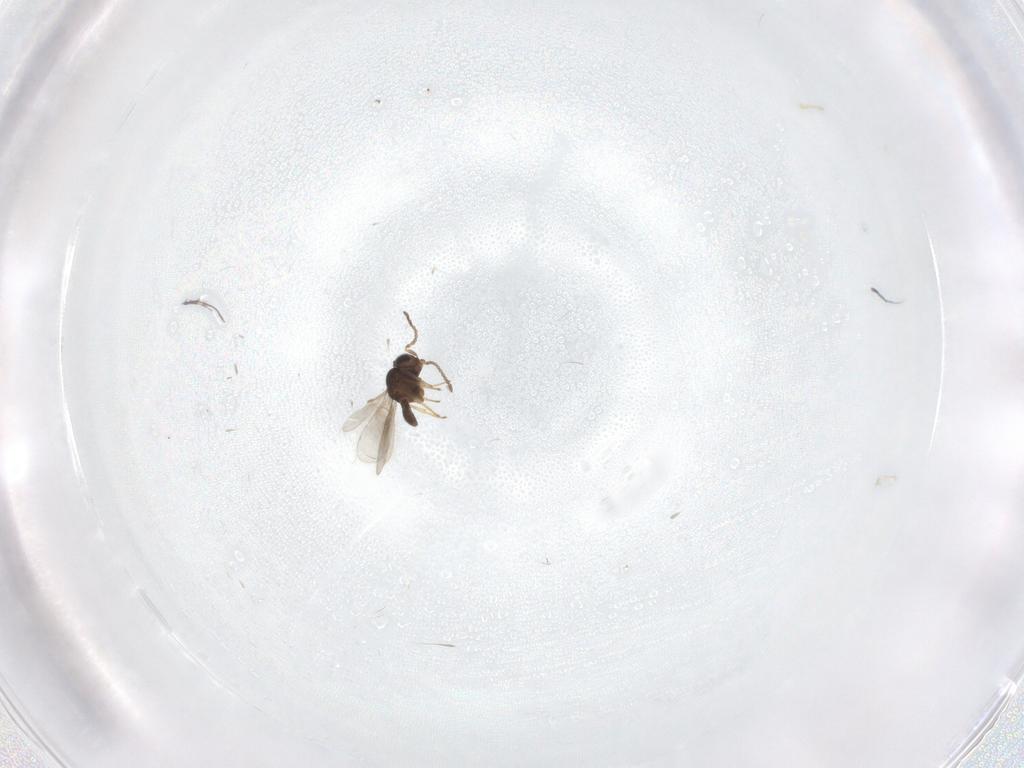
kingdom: Animalia
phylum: Arthropoda
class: Insecta
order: Hymenoptera
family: Scelionidae
